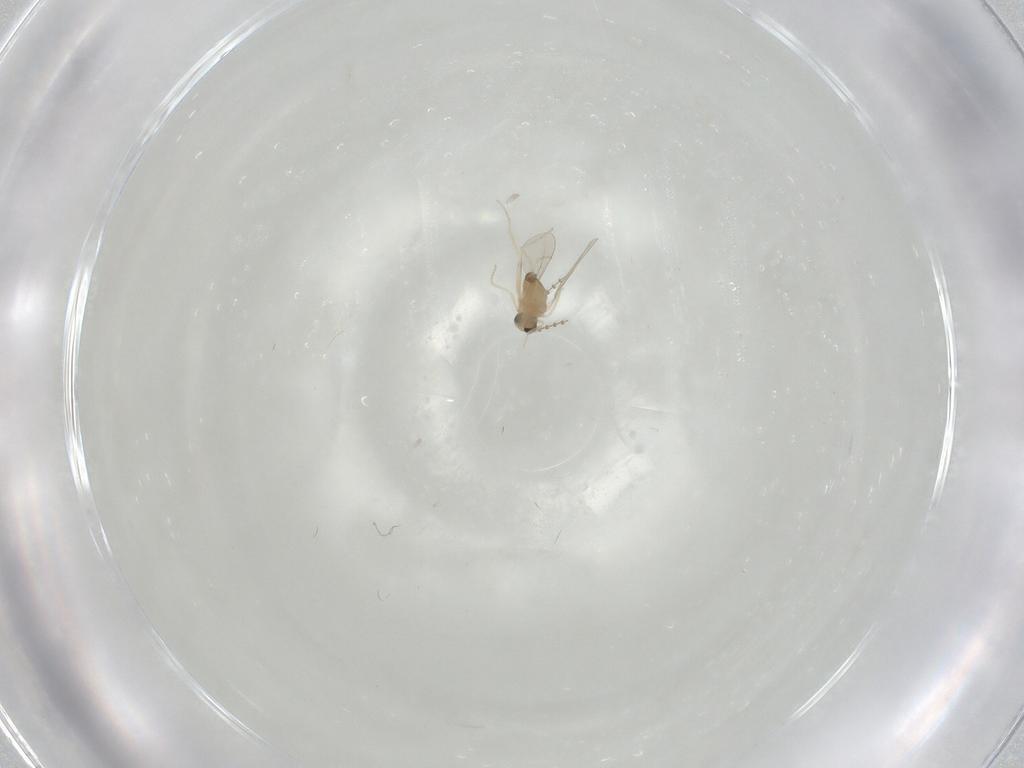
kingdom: Animalia
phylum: Arthropoda
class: Insecta
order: Diptera
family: Cecidomyiidae
